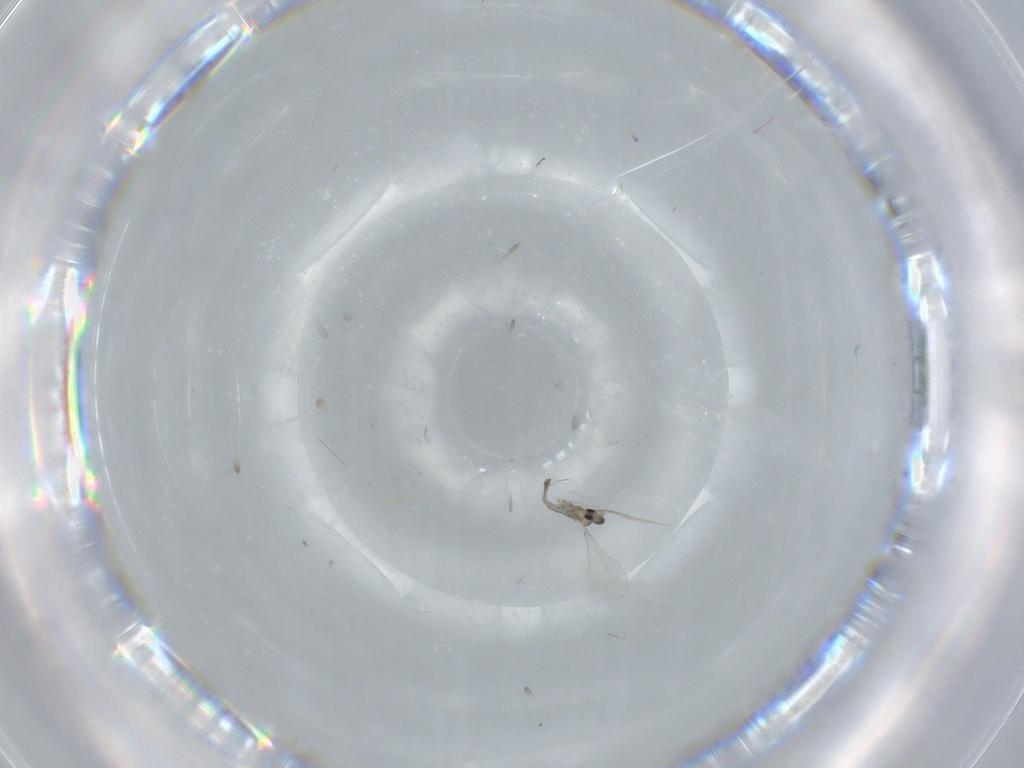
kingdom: Animalia
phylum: Arthropoda
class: Insecta
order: Diptera
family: Cecidomyiidae
